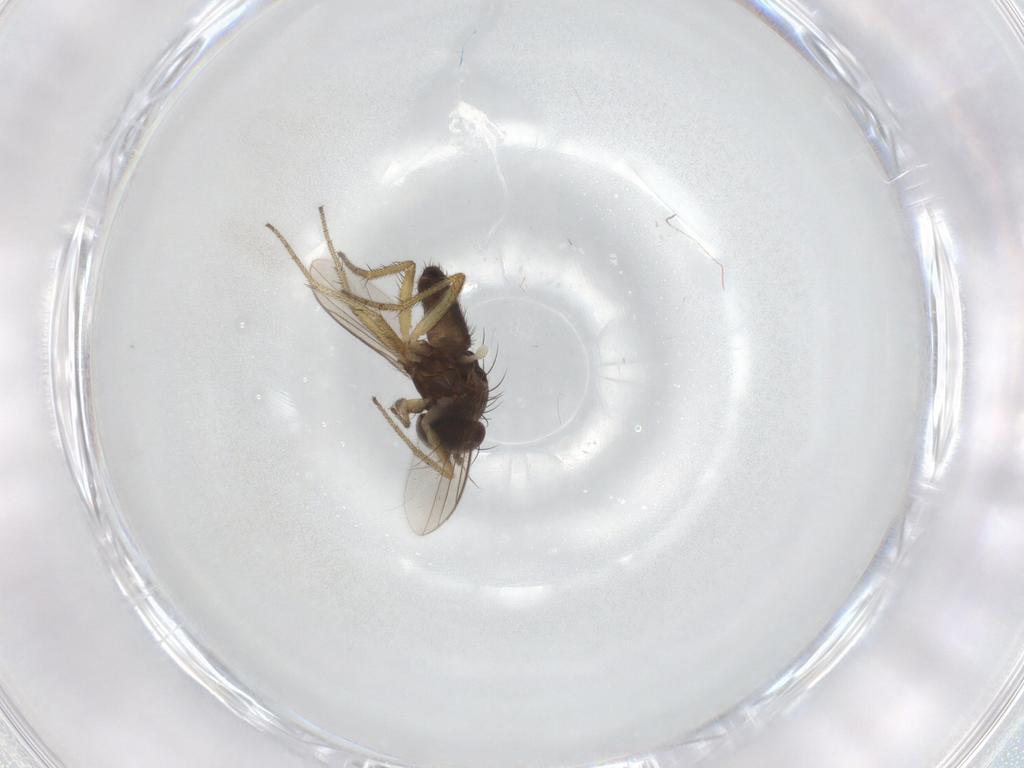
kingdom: Animalia
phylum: Arthropoda
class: Insecta
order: Diptera
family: Dolichopodidae
